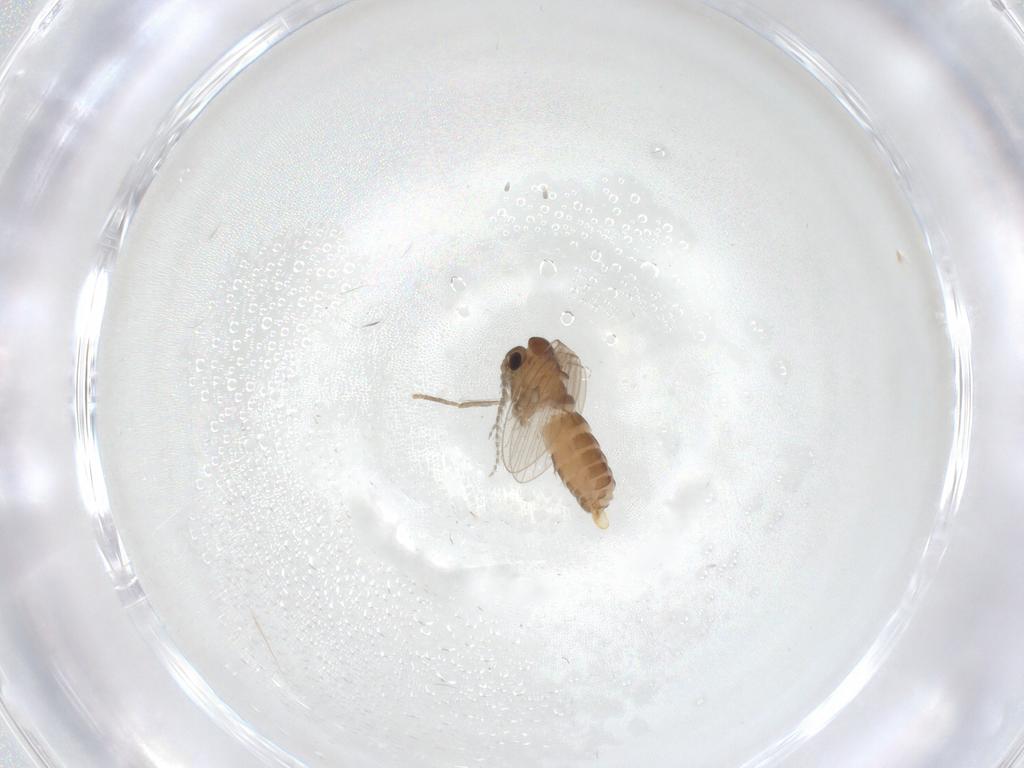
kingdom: Animalia
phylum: Arthropoda
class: Insecta
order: Diptera
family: Psychodidae
